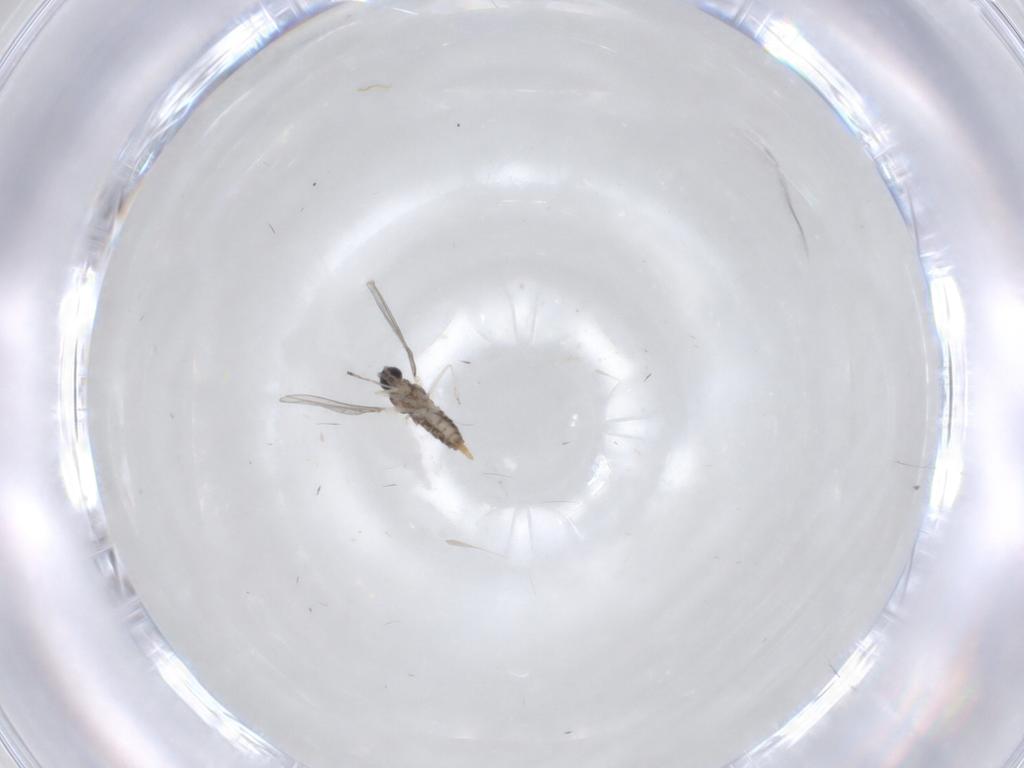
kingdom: Animalia
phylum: Arthropoda
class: Insecta
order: Diptera
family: Cecidomyiidae
